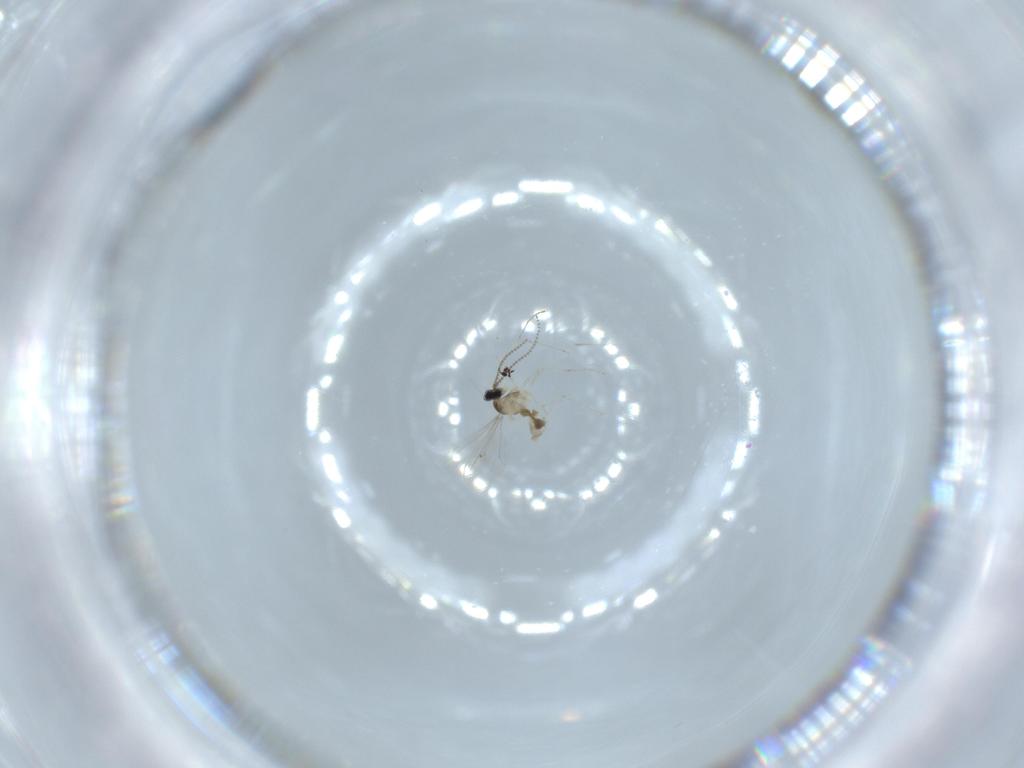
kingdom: Animalia
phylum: Arthropoda
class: Insecta
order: Diptera
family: Cecidomyiidae
